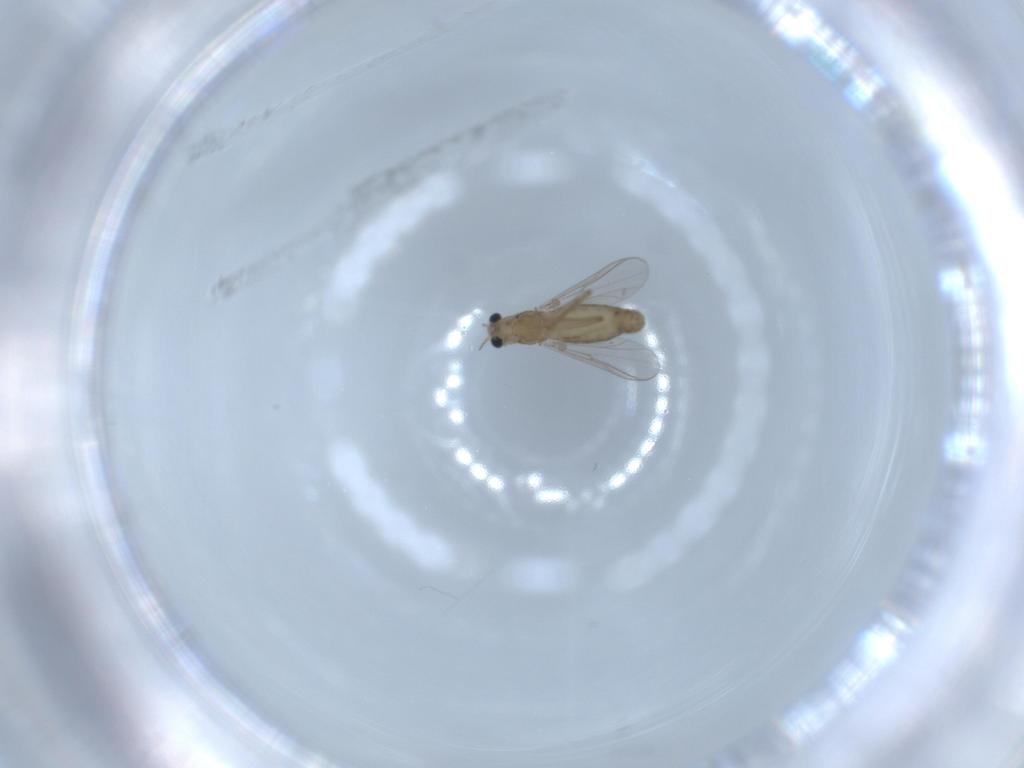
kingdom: Animalia
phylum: Arthropoda
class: Insecta
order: Diptera
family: Chironomidae
